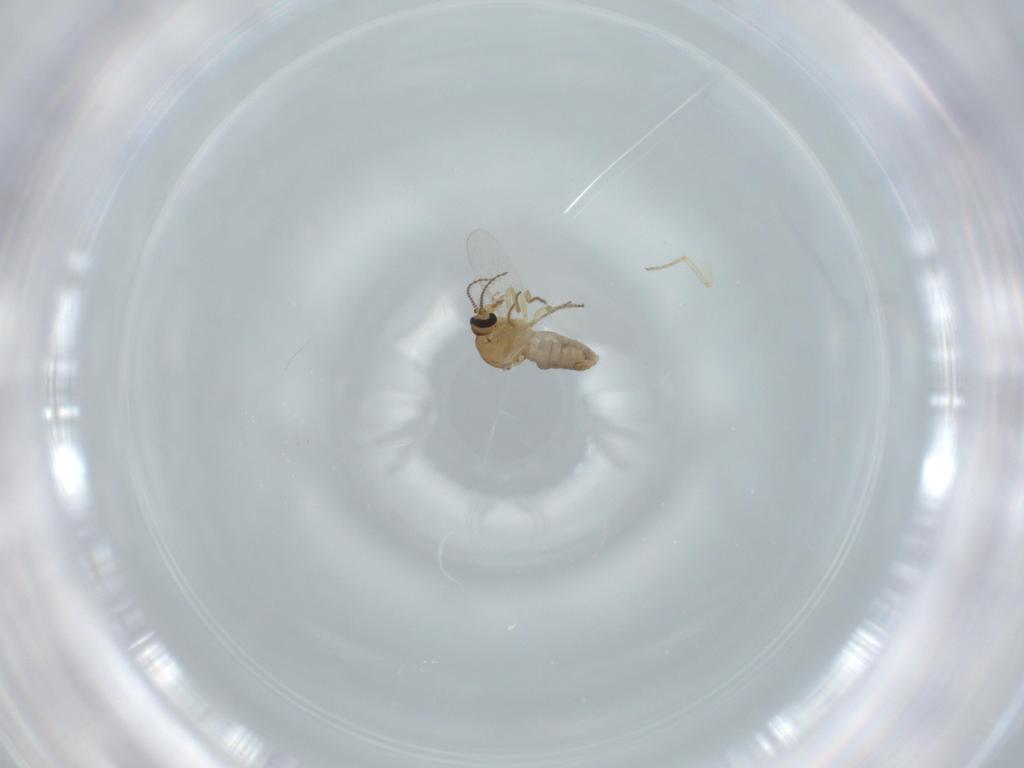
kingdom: Animalia
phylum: Arthropoda
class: Insecta
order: Diptera
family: Ceratopogonidae
